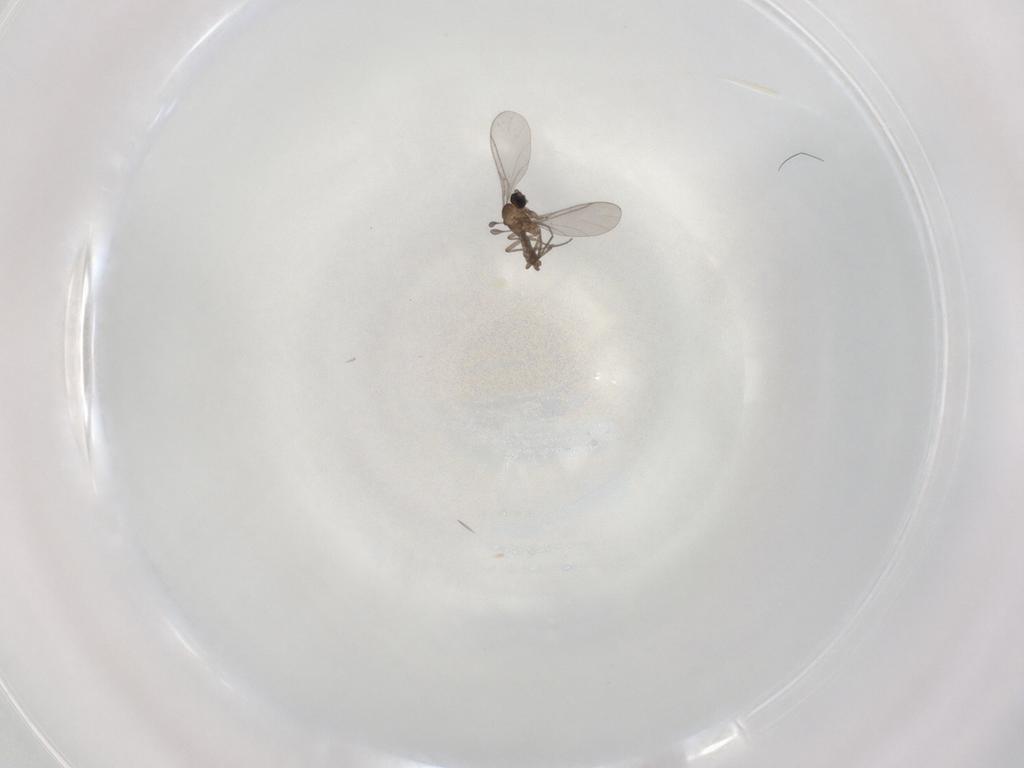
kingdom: Animalia
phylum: Arthropoda
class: Insecta
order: Diptera
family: Sciaridae
